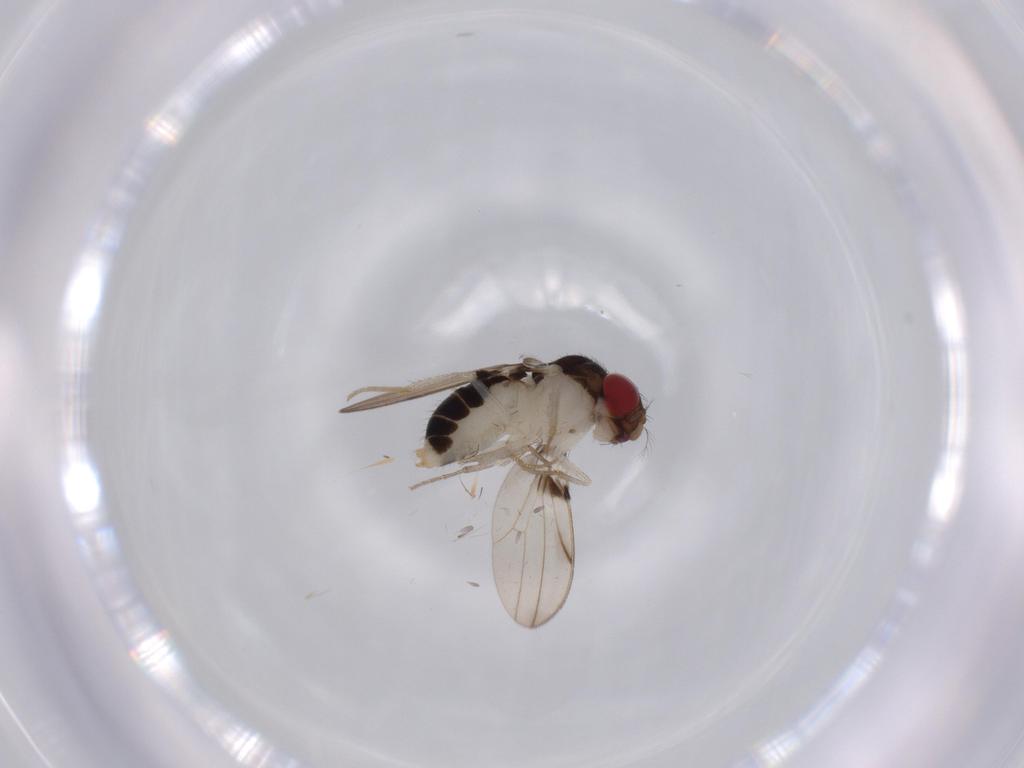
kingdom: Animalia
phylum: Arthropoda
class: Insecta
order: Diptera
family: Drosophilidae
